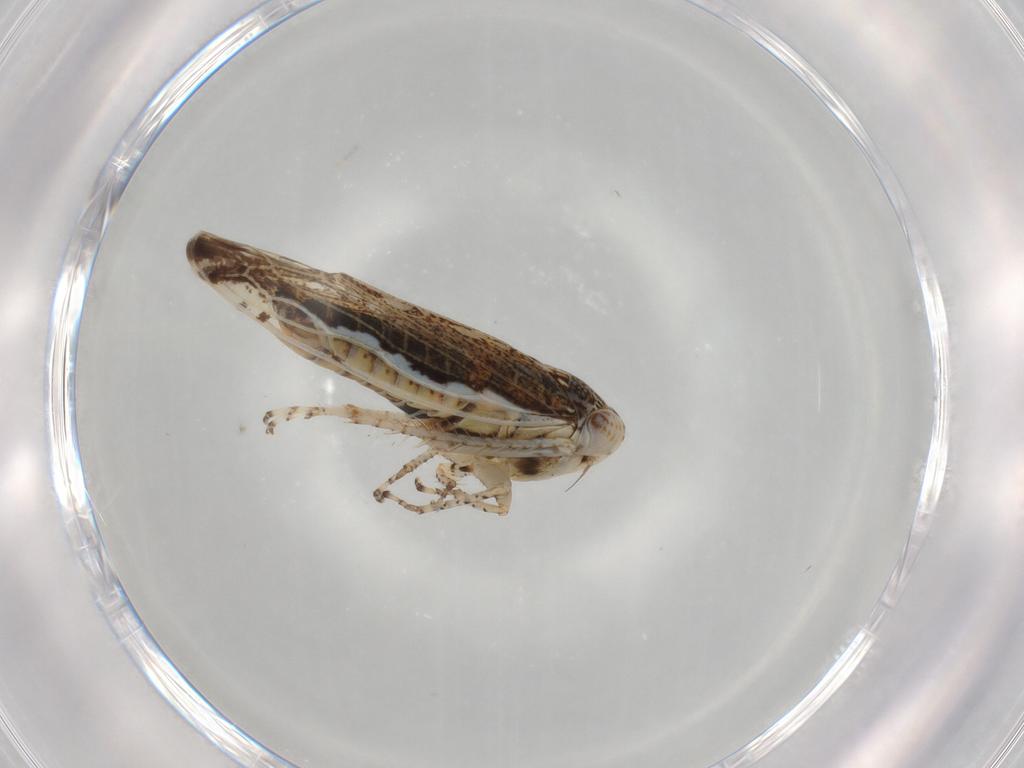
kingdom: Animalia
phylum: Arthropoda
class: Insecta
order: Hemiptera
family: Cicadellidae
